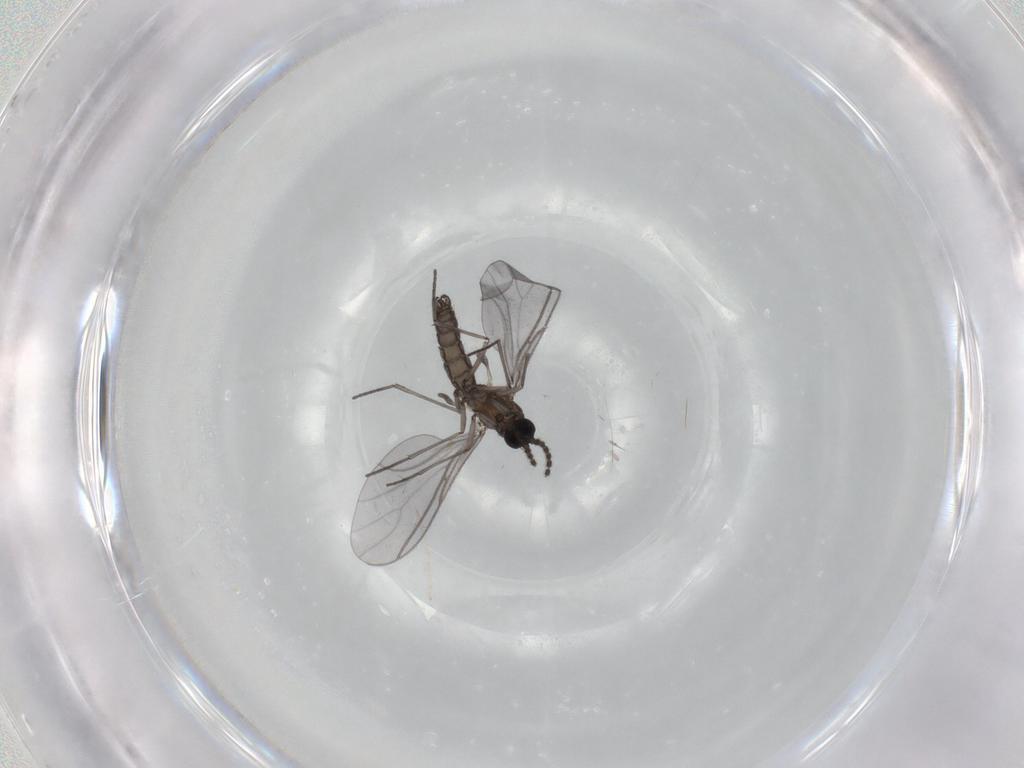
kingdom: Animalia
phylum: Arthropoda
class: Insecta
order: Diptera
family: Sciaridae
